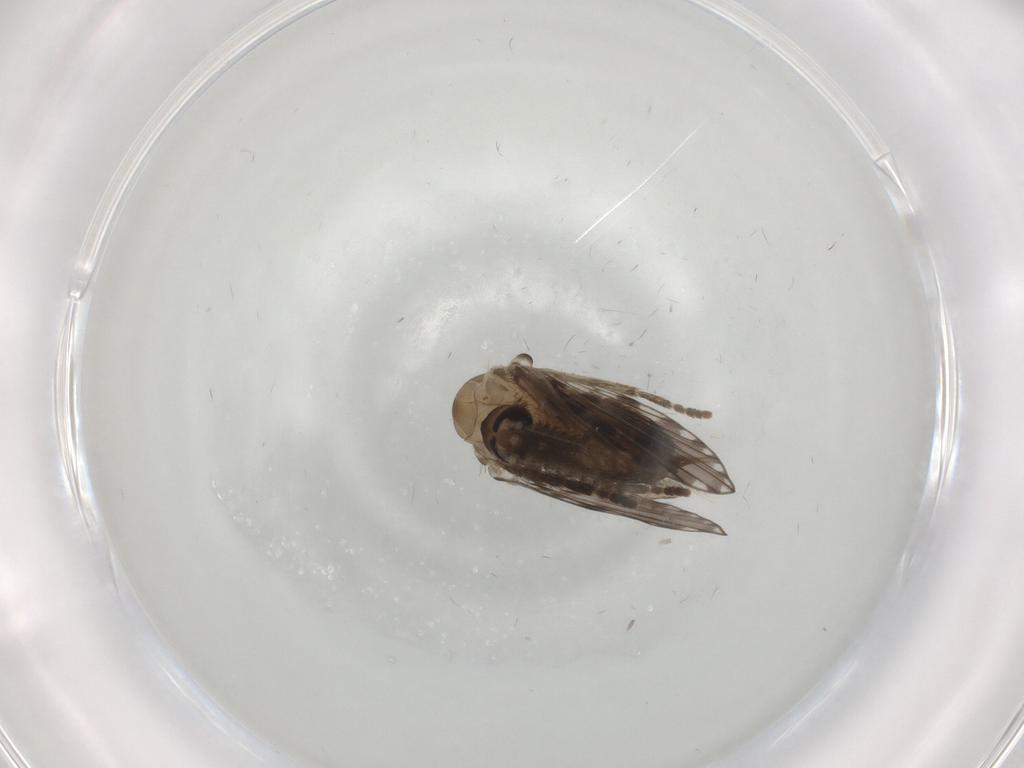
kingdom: Animalia
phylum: Arthropoda
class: Insecta
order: Diptera
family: Psychodidae
